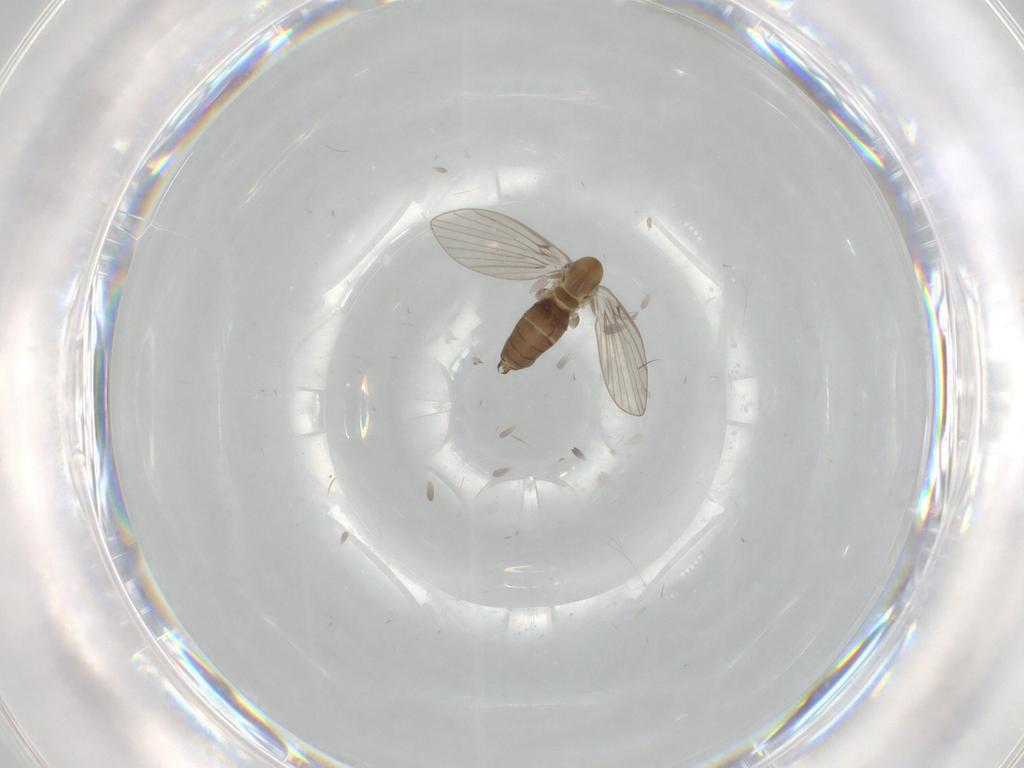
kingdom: Animalia
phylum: Arthropoda
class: Insecta
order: Diptera
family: Psychodidae
